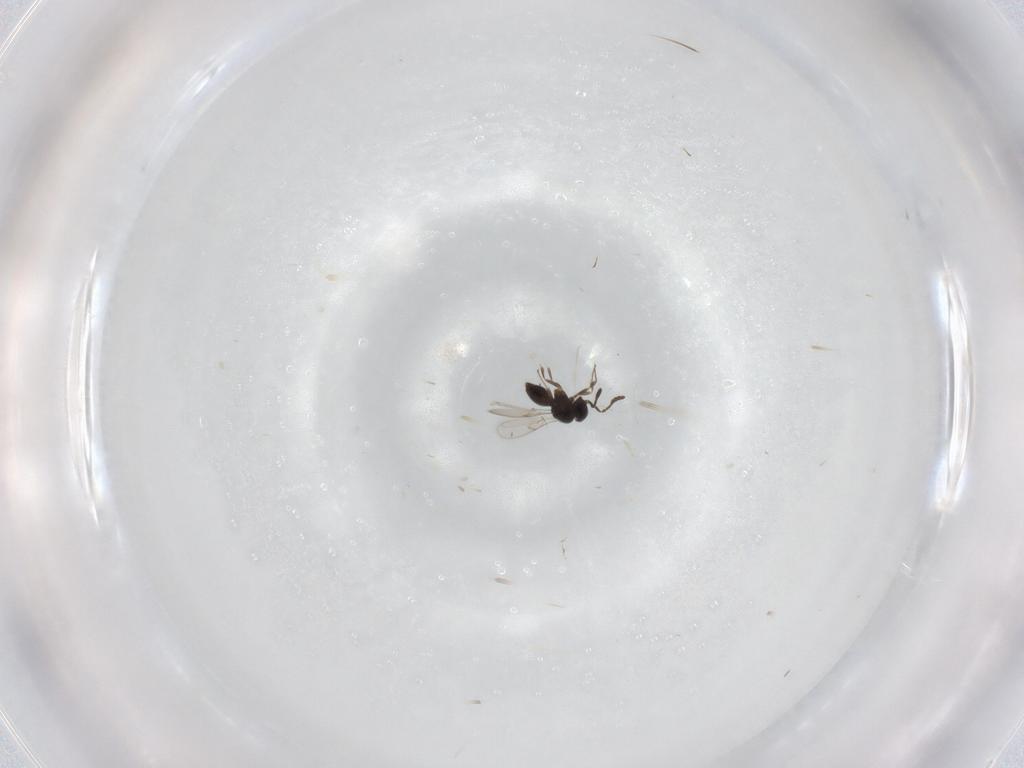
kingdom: Animalia
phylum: Arthropoda
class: Insecta
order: Hymenoptera
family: Scelionidae
